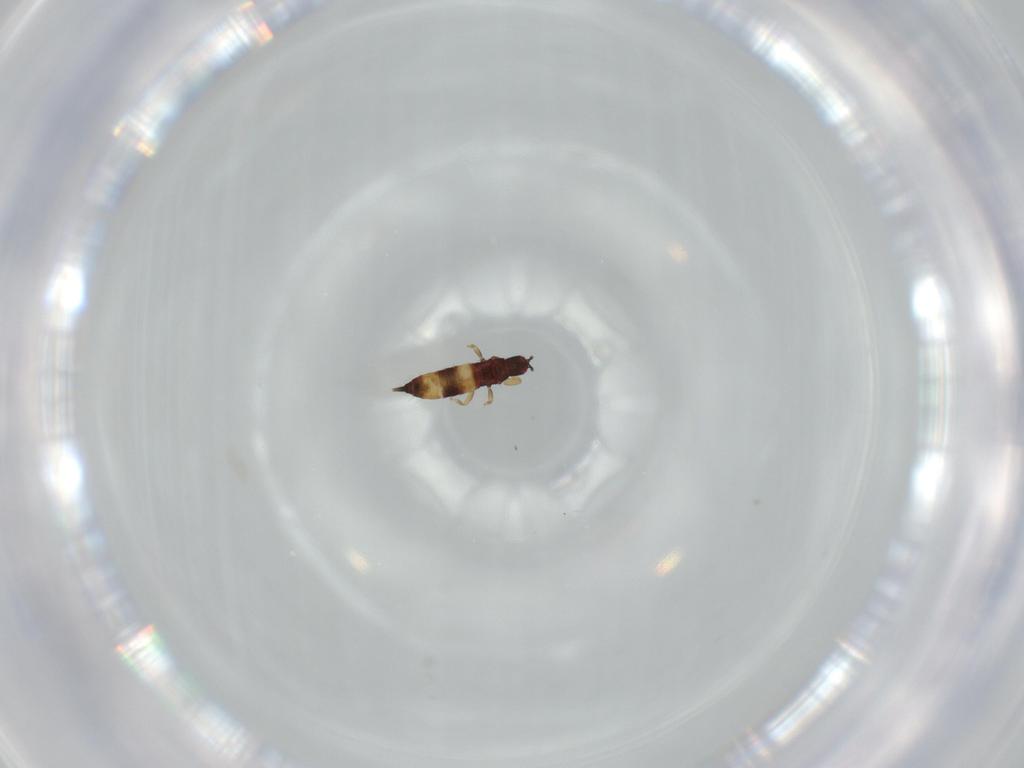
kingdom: Animalia
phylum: Arthropoda
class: Insecta
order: Thysanoptera
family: Phlaeothripidae
